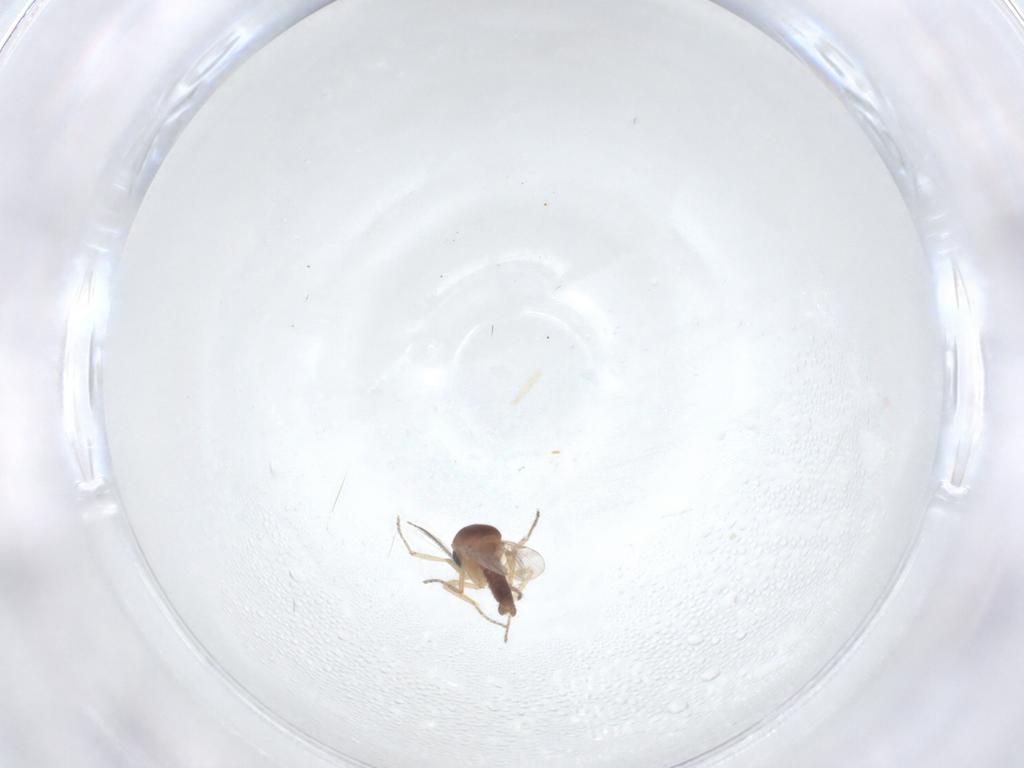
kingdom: Animalia
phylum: Arthropoda
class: Insecta
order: Diptera
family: Ceratopogonidae
